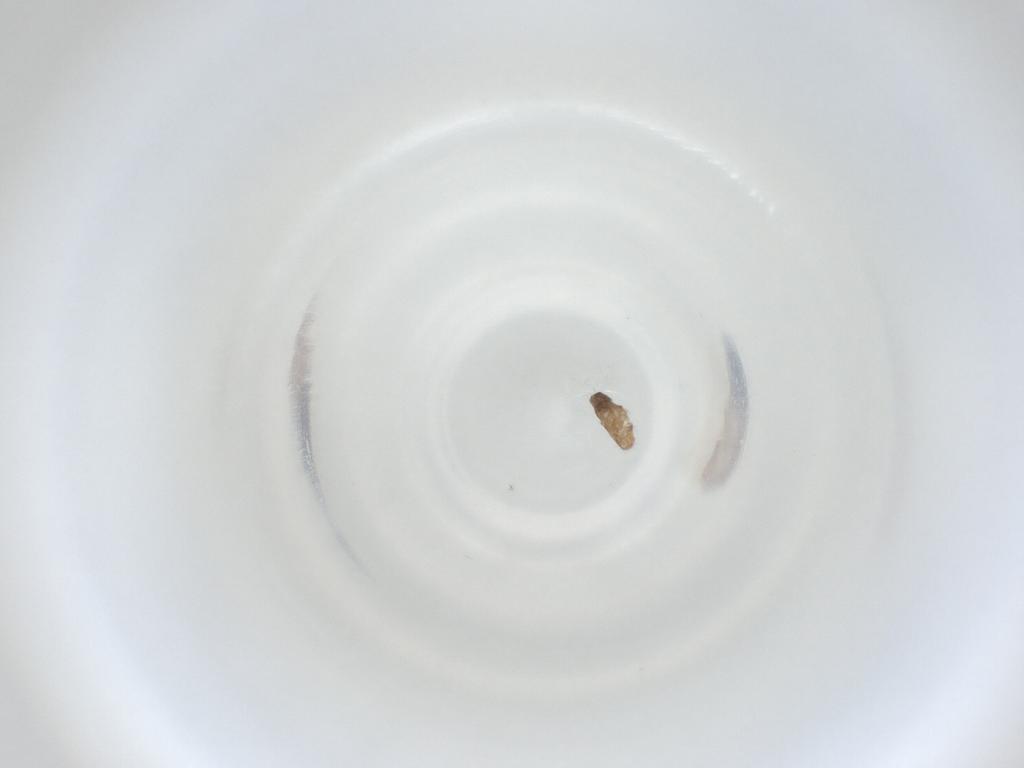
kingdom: Animalia
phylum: Arthropoda
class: Insecta
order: Diptera
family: Cecidomyiidae
